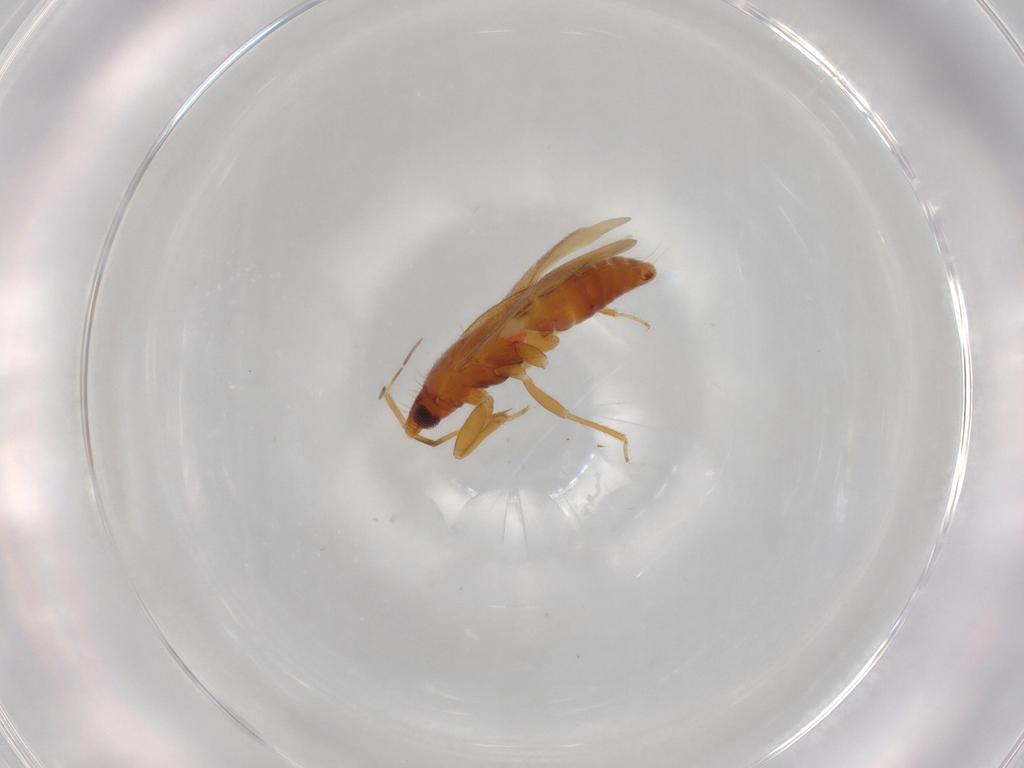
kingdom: Animalia
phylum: Arthropoda
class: Insecta
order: Hemiptera
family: Anthocoridae
